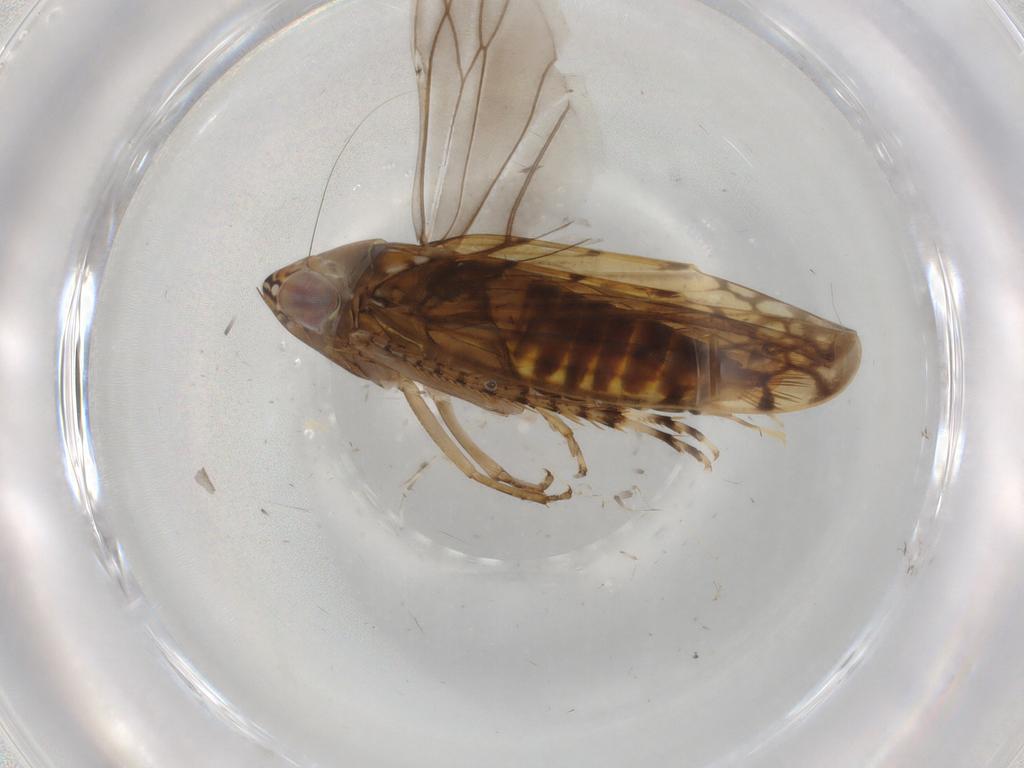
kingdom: Animalia
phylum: Arthropoda
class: Insecta
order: Hemiptera
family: Cicadellidae
